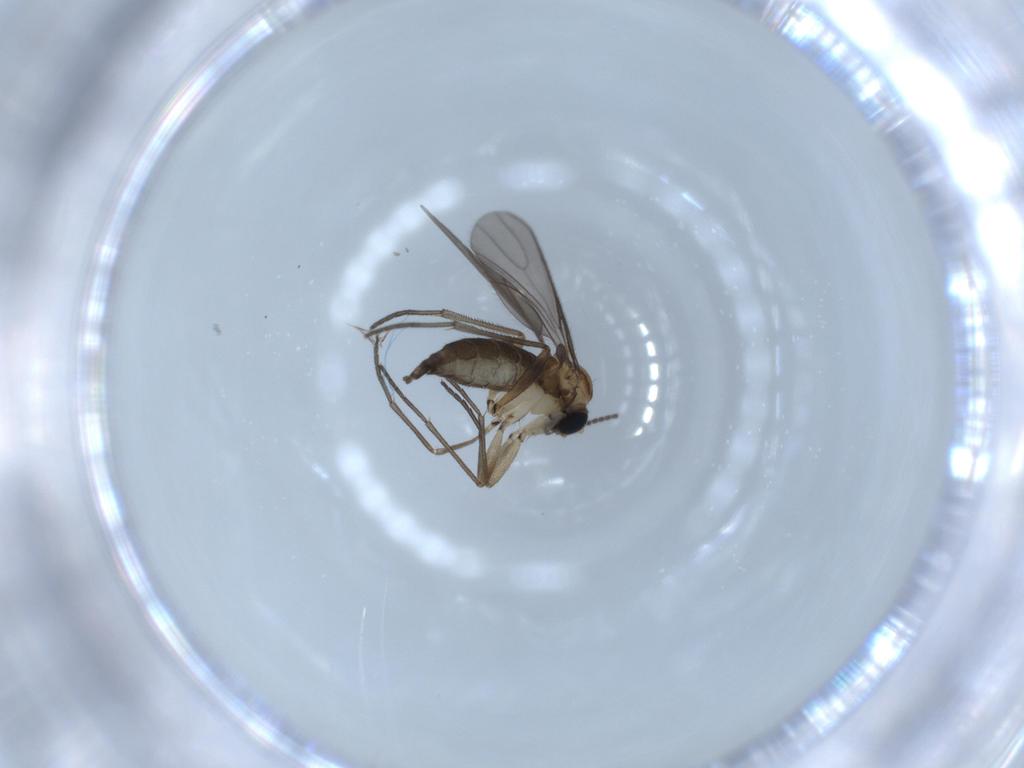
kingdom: Animalia
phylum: Arthropoda
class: Insecta
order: Diptera
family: Sciaridae
